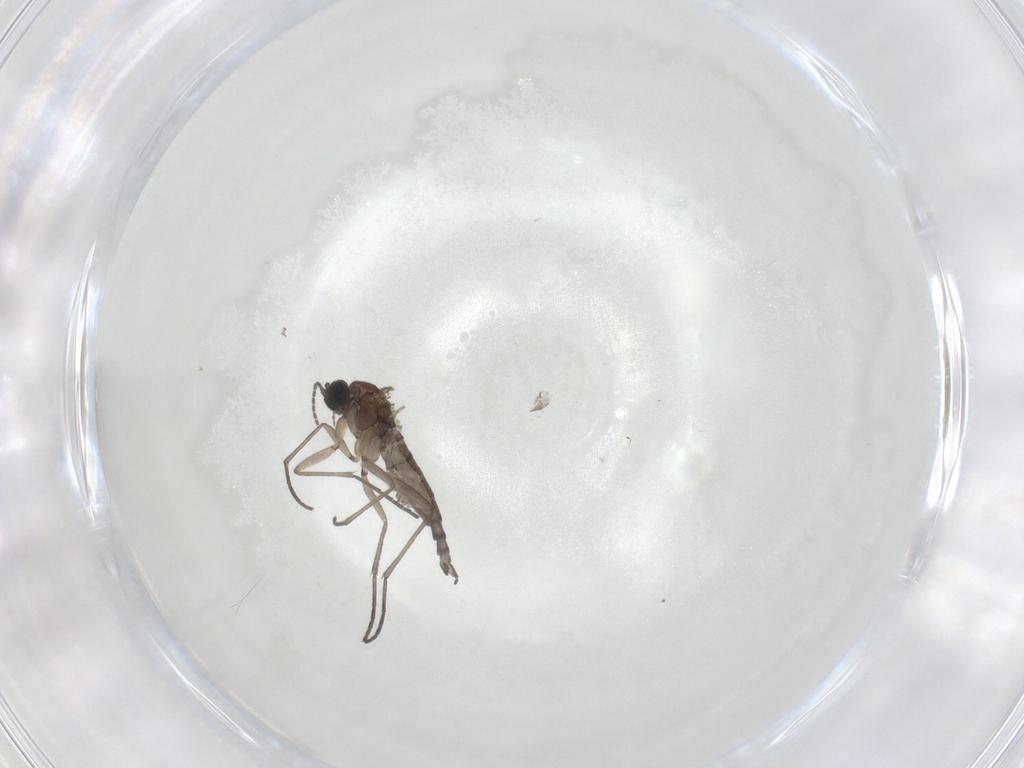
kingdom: Animalia
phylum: Arthropoda
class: Insecta
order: Diptera
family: Sciaridae
